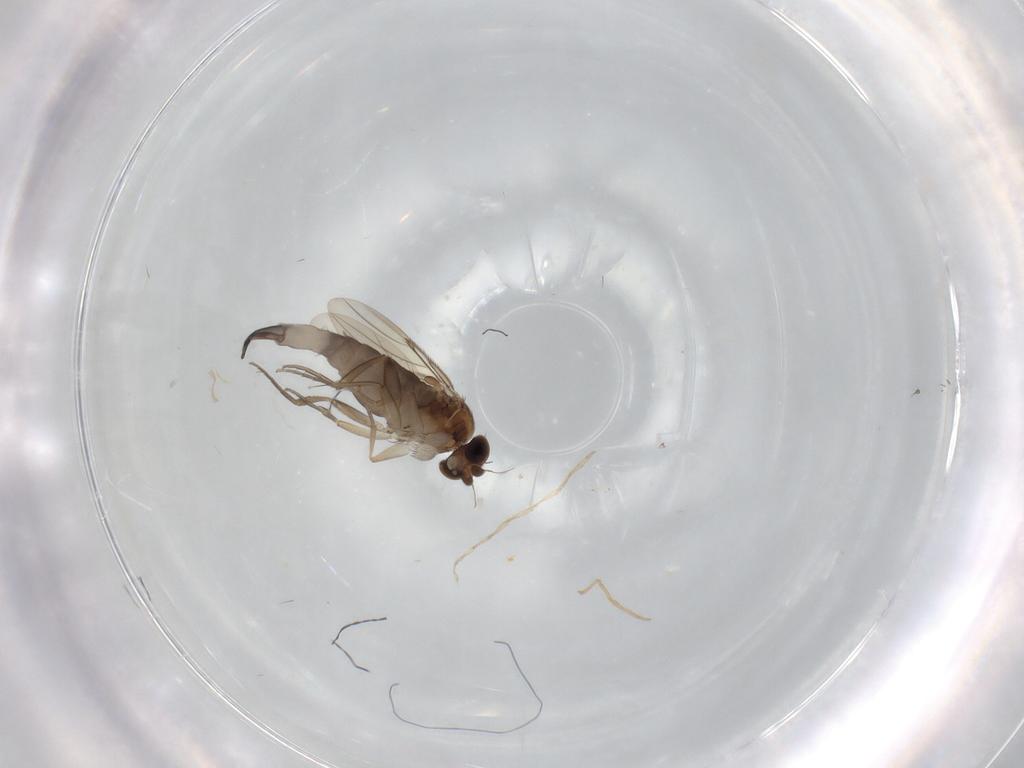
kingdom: Animalia
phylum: Arthropoda
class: Insecta
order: Diptera
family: Phoridae
